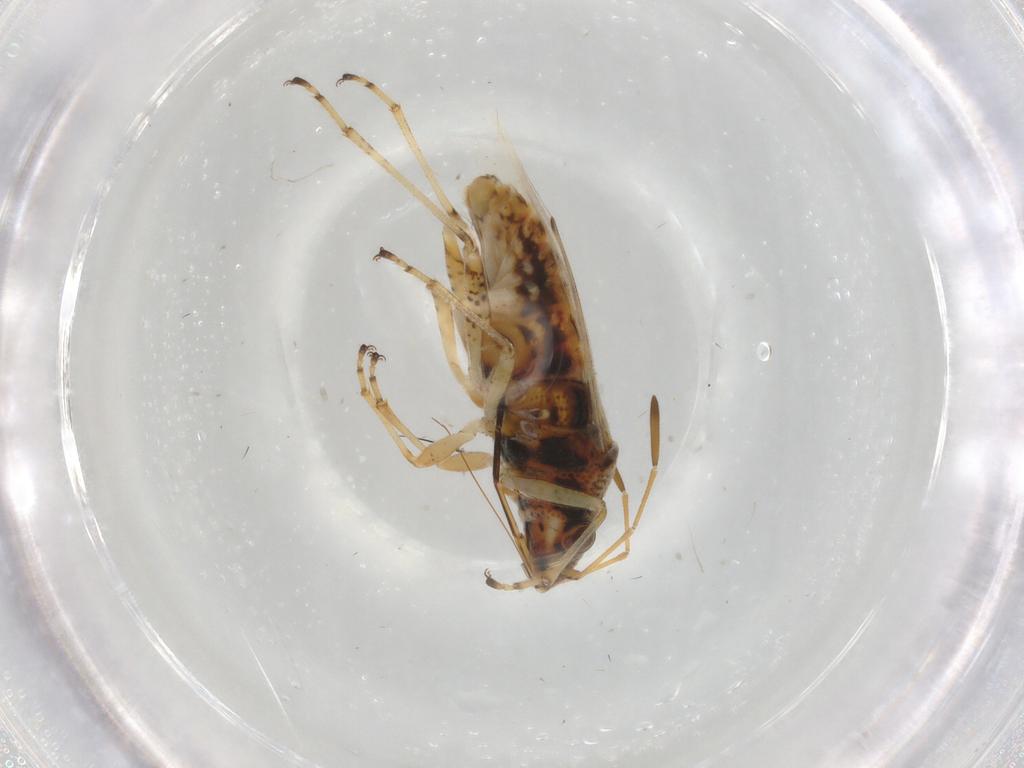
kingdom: Animalia
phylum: Arthropoda
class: Insecta
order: Hemiptera
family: Lygaeidae
